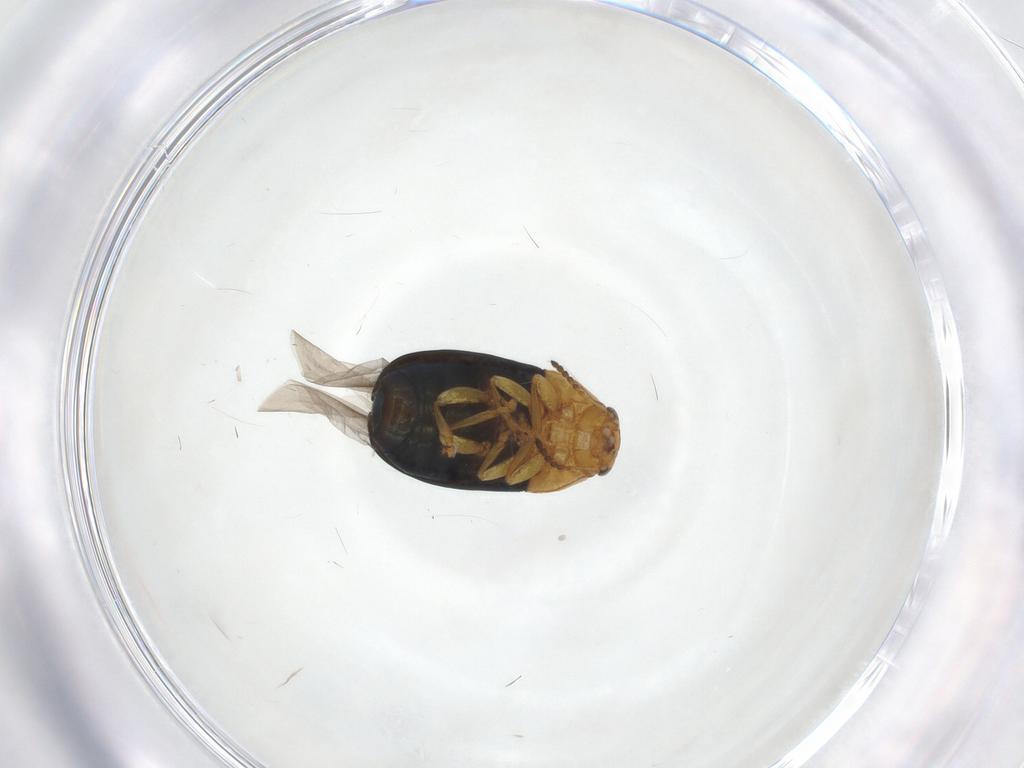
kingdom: Animalia
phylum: Arthropoda
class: Insecta
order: Coleoptera
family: Chrysomelidae
